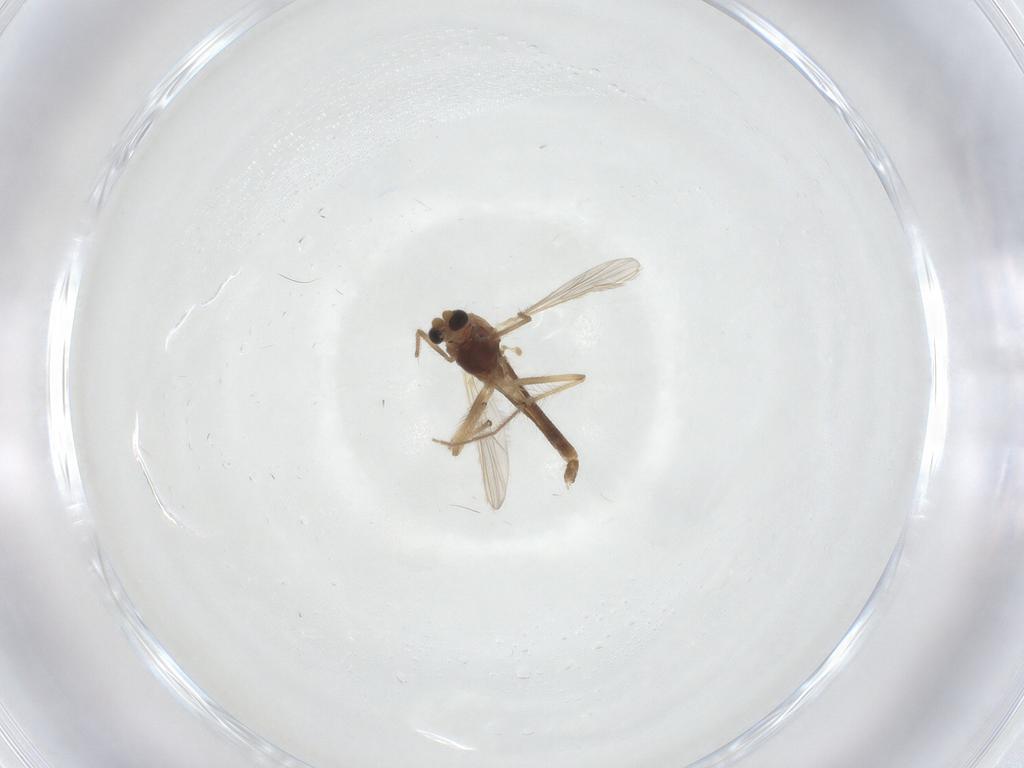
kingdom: Animalia
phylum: Arthropoda
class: Insecta
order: Diptera
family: Chironomidae
